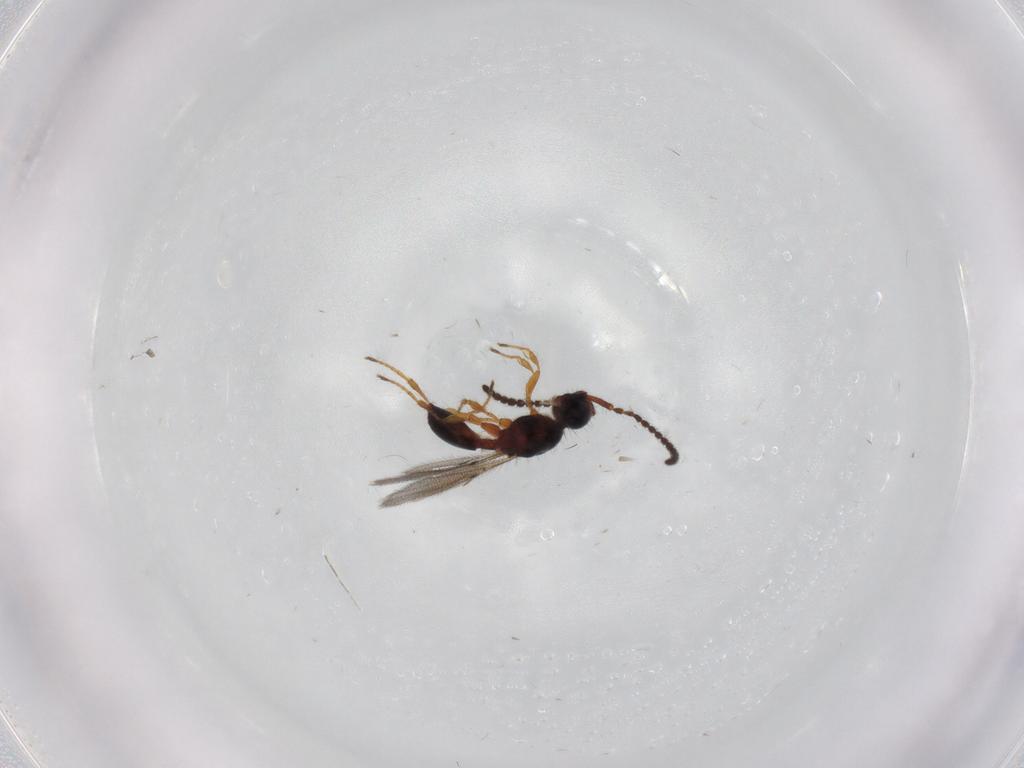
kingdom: Animalia
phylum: Arthropoda
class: Insecta
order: Hymenoptera
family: Diapriidae
